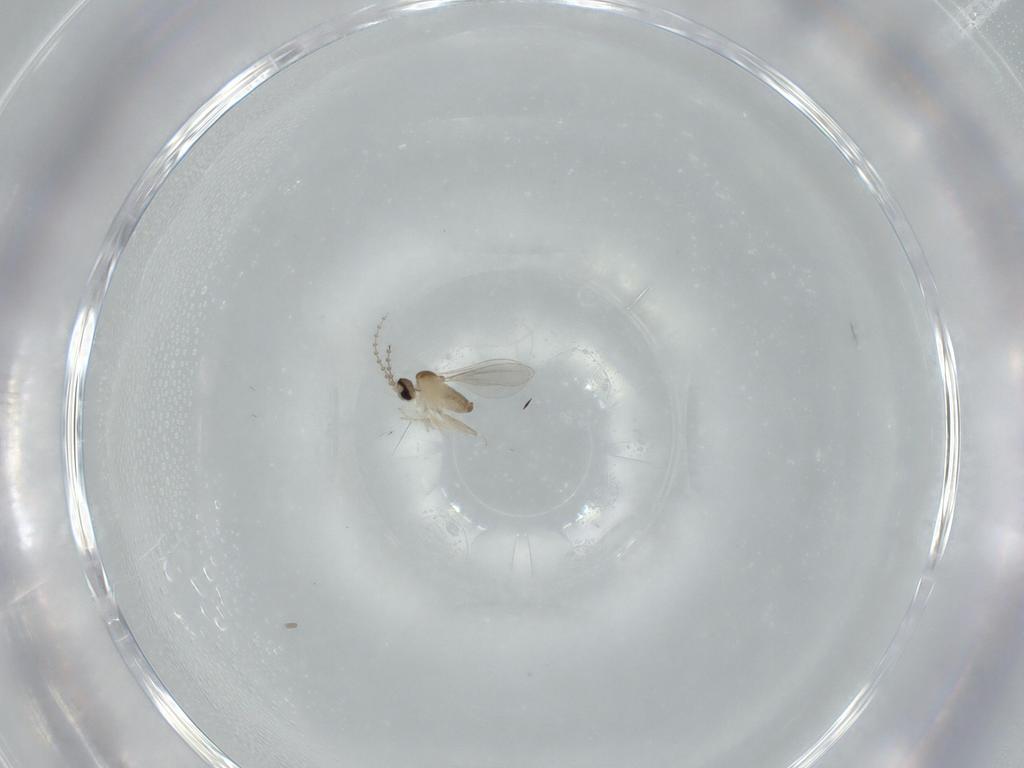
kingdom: Animalia
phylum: Arthropoda
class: Insecta
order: Diptera
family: Cecidomyiidae
